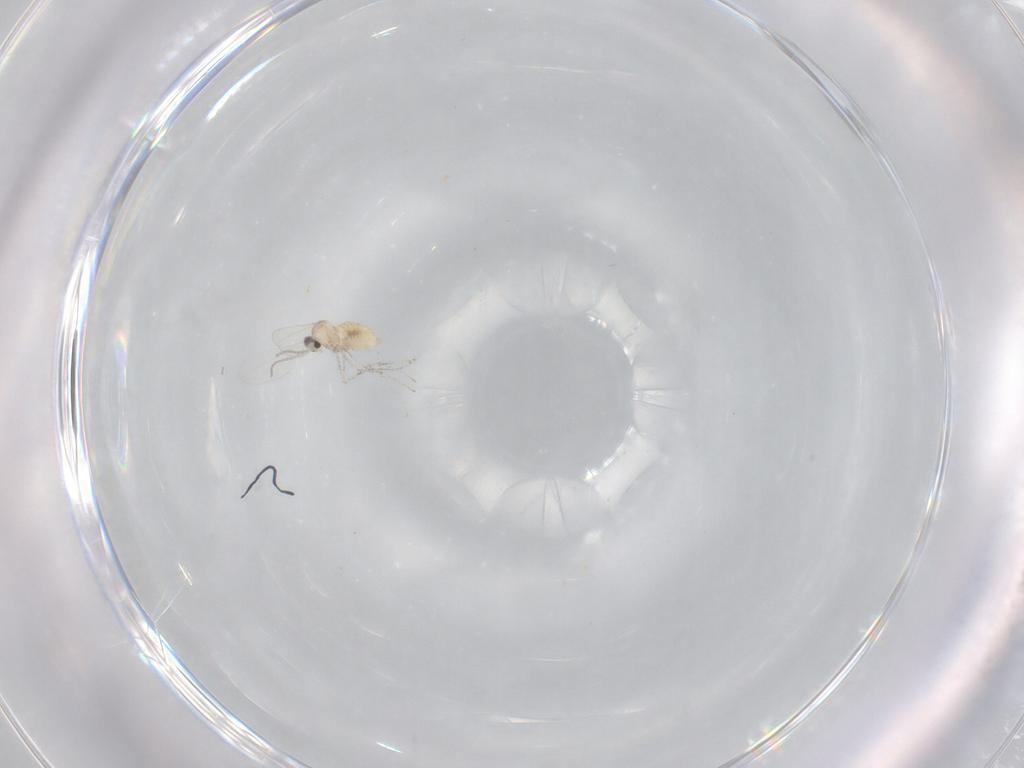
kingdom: Animalia
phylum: Arthropoda
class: Insecta
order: Diptera
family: Cecidomyiidae
